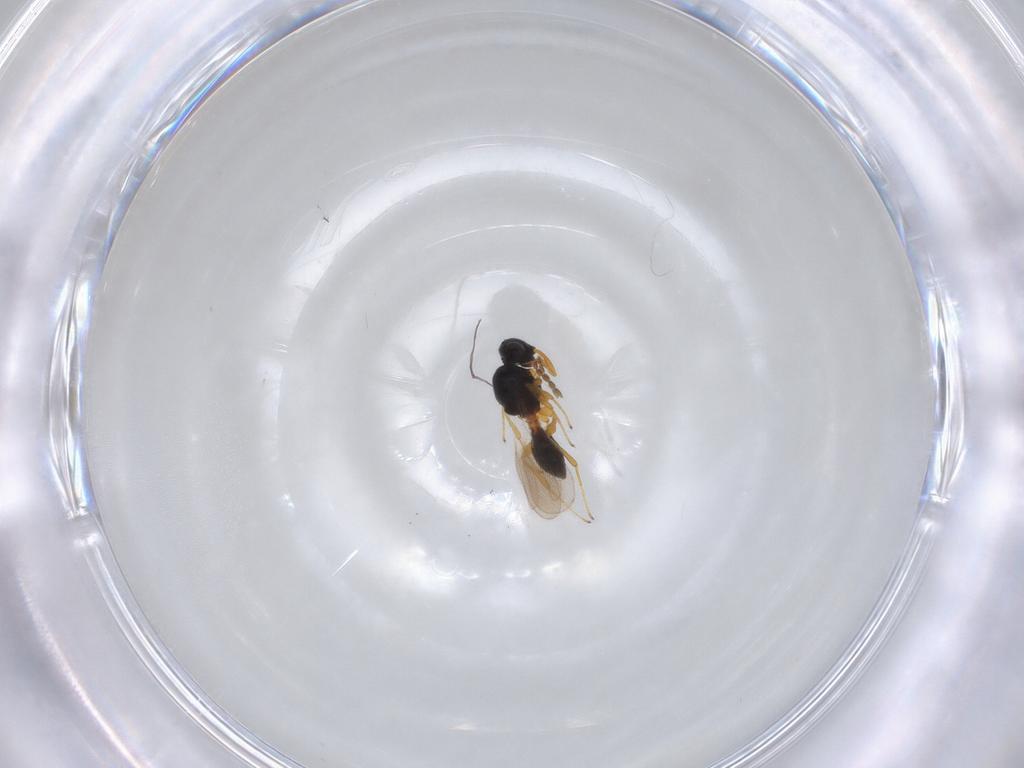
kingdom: Animalia
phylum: Arthropoda
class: Insecta
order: Hymenoptera
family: Platygastridae
